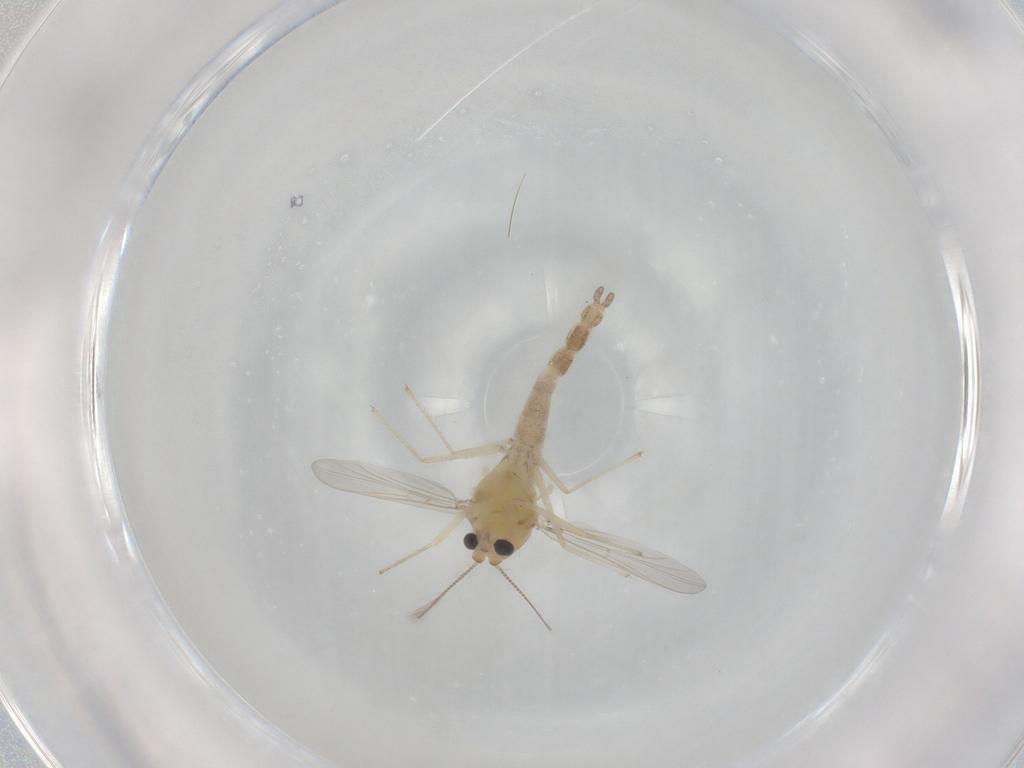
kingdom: Animalia
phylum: Arthropoda
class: Insecta
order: Diptera
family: Chironomidae
